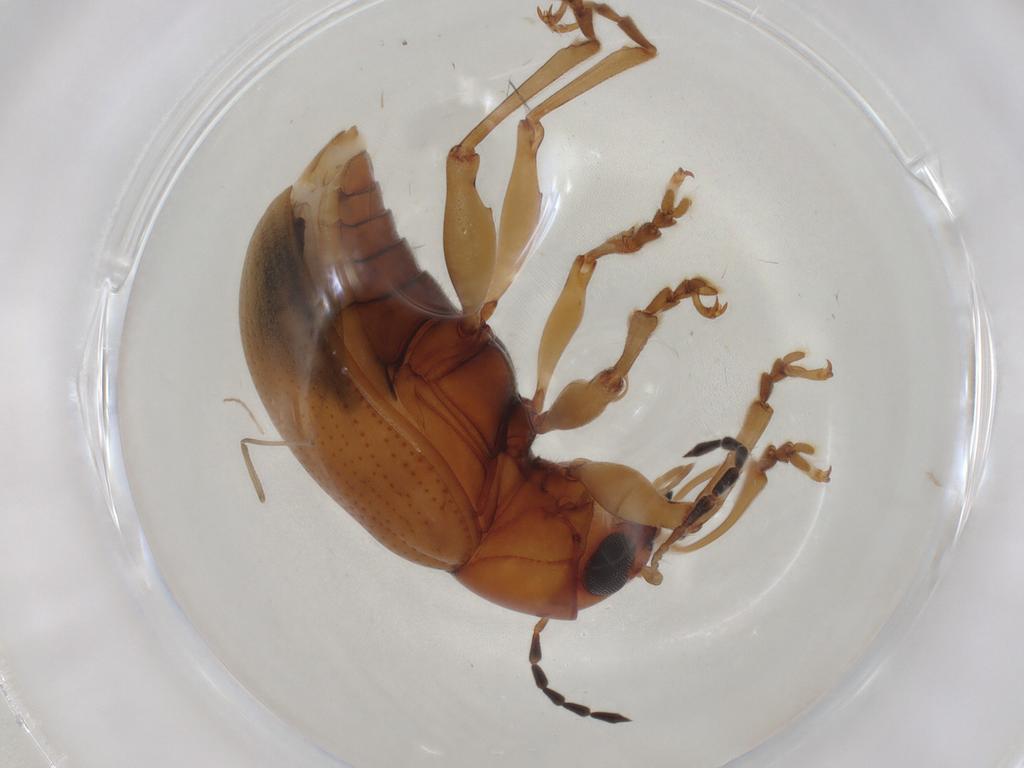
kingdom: Animalia
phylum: Arthropoda
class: Insecta
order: Coleoptera
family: Chrysomelidae
